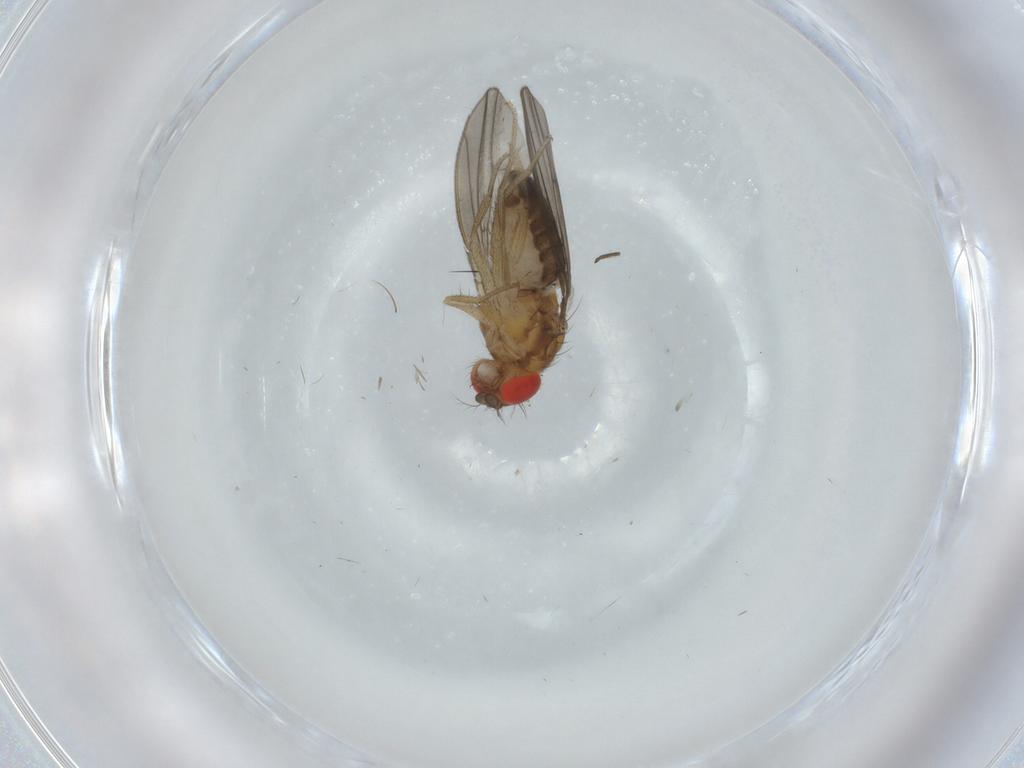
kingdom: Animalia
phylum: Arthropoda
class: Insecta
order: Diptera
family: Drosophilidae
